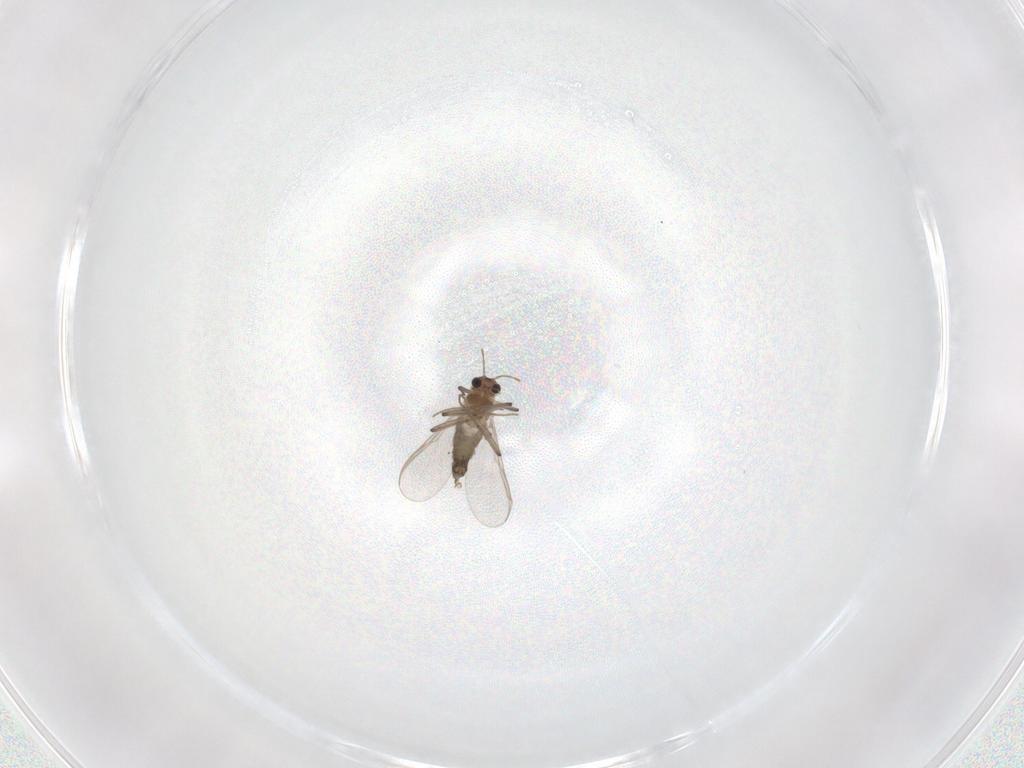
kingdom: Animalia
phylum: Arthropoda
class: Insecta
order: Diptera
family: Chironomidae
